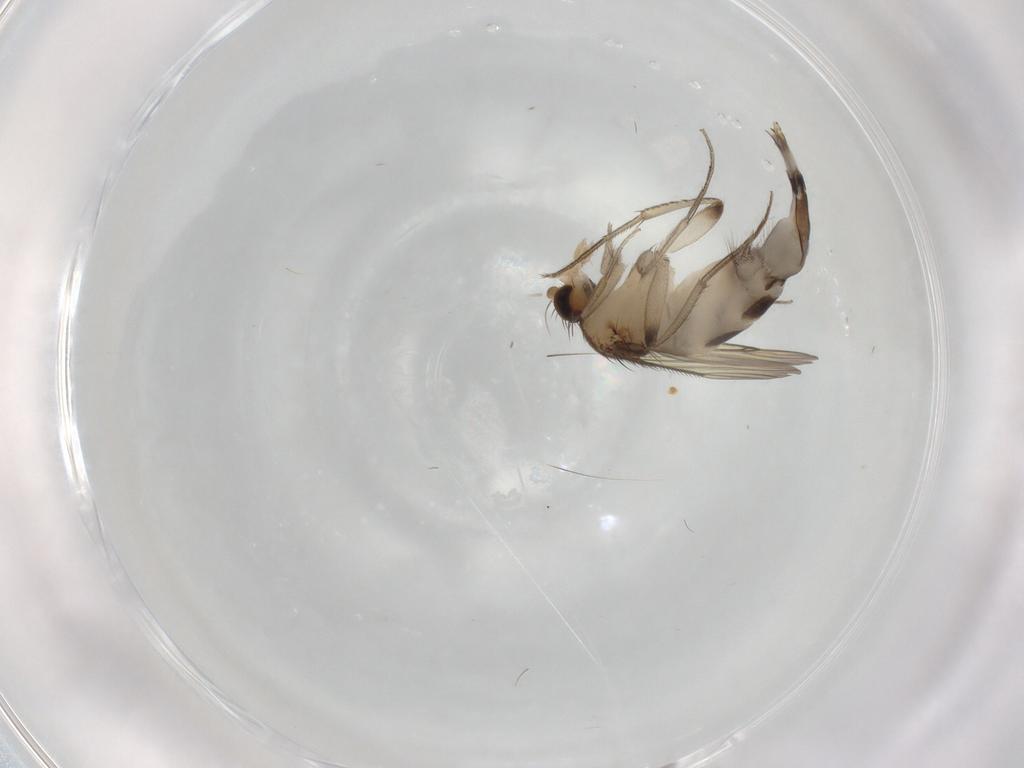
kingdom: Animalia
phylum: Arthropoda
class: Insecta
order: Diptera
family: Phoridae
